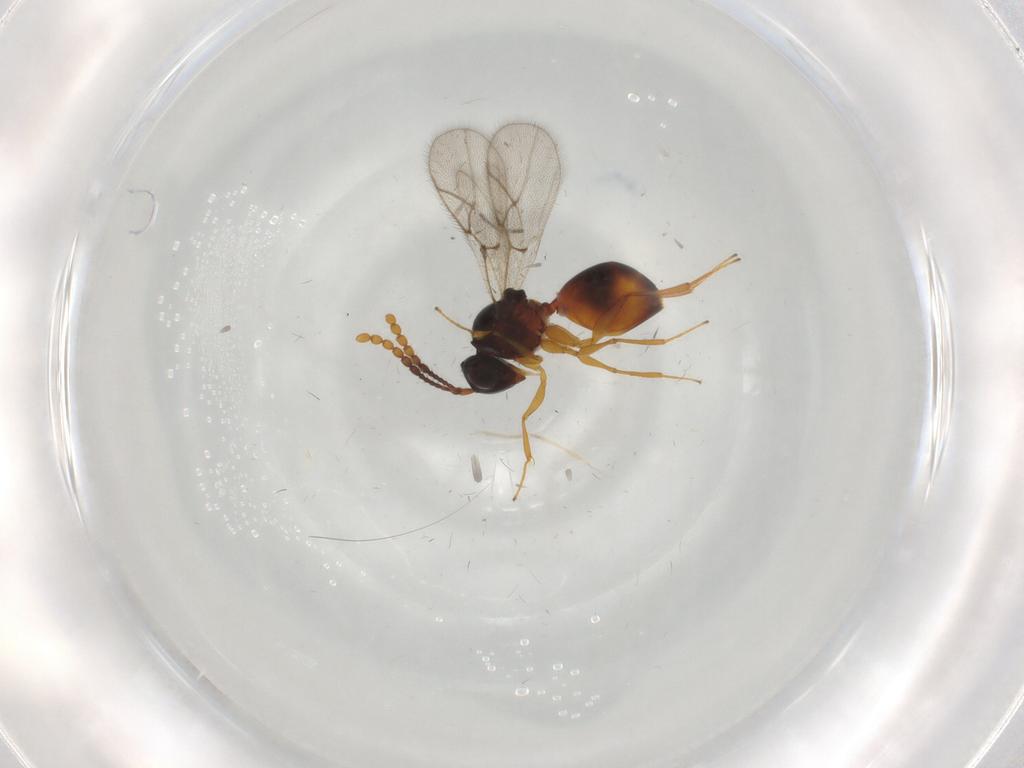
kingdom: Animalia
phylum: Arthropoda
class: Insecta
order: Hymenoptera
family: Figitidae
